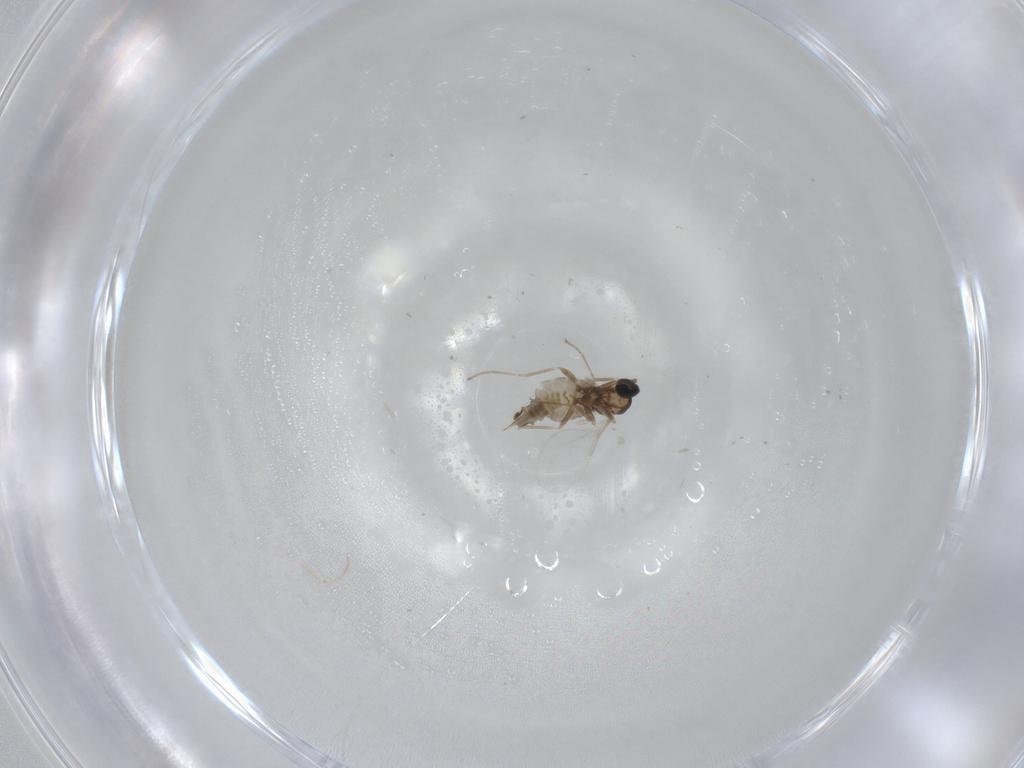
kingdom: Animalia
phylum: Arthropoda
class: Insecta
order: Diptera
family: Cecidomyiidae
